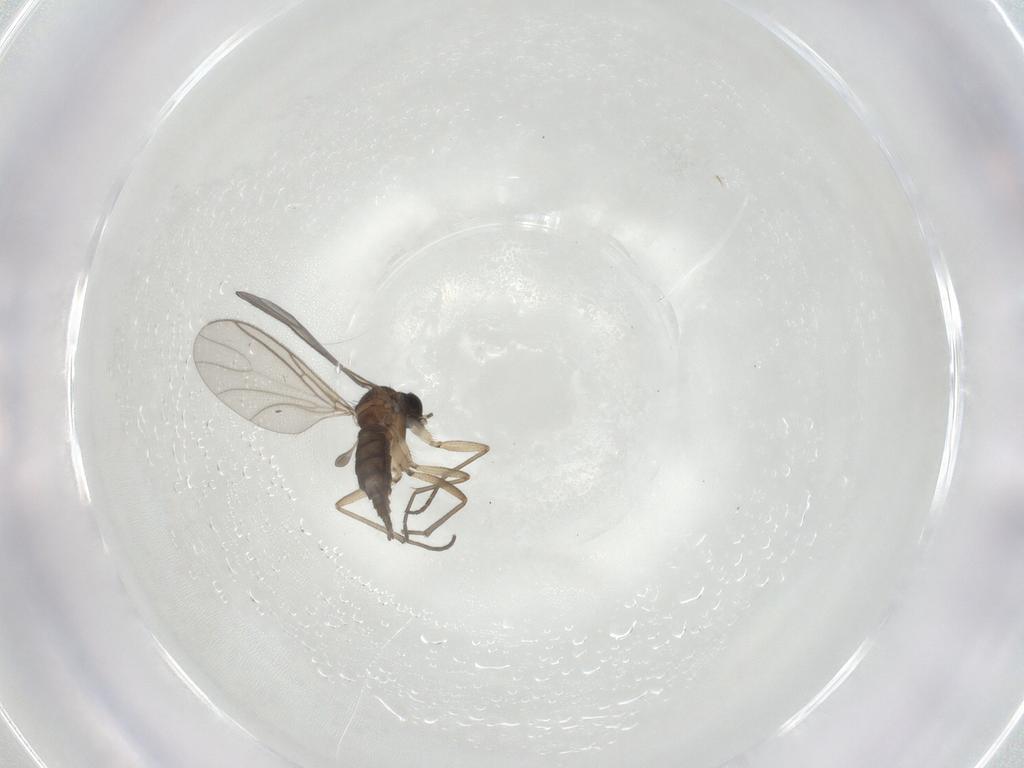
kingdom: Animalia
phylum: Arthropoda
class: Insecta
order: Diptera
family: Sciaridae
